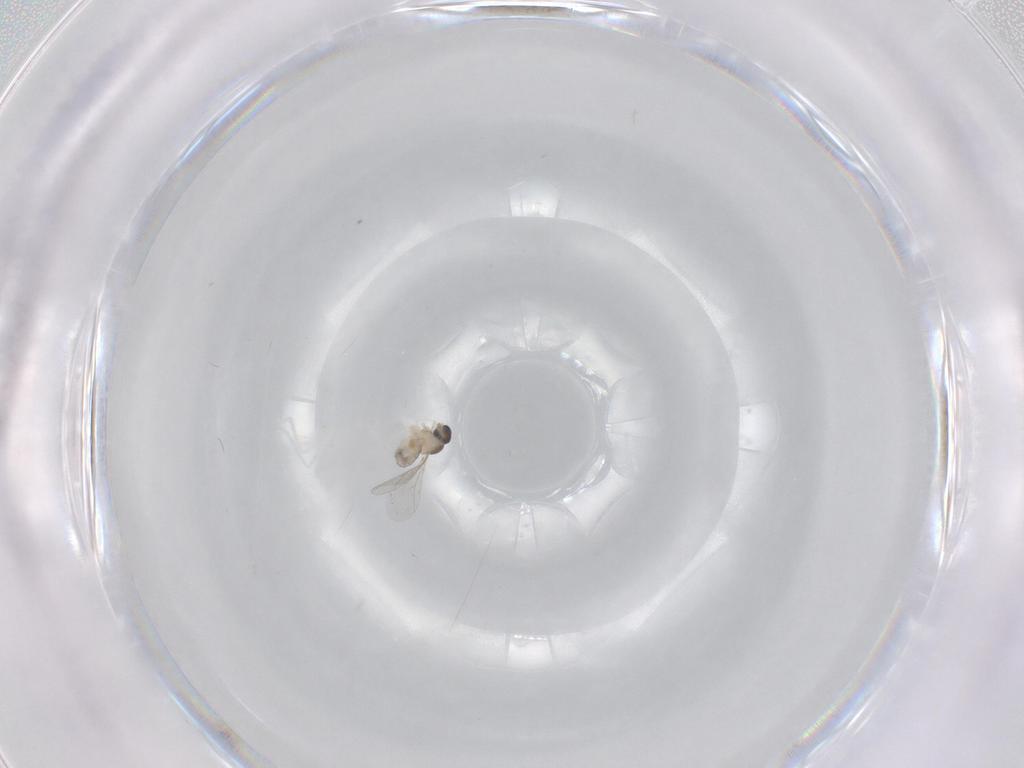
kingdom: Animalia
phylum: Arthropoda
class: Insecta
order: Diptera
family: Cecidomyiidae
